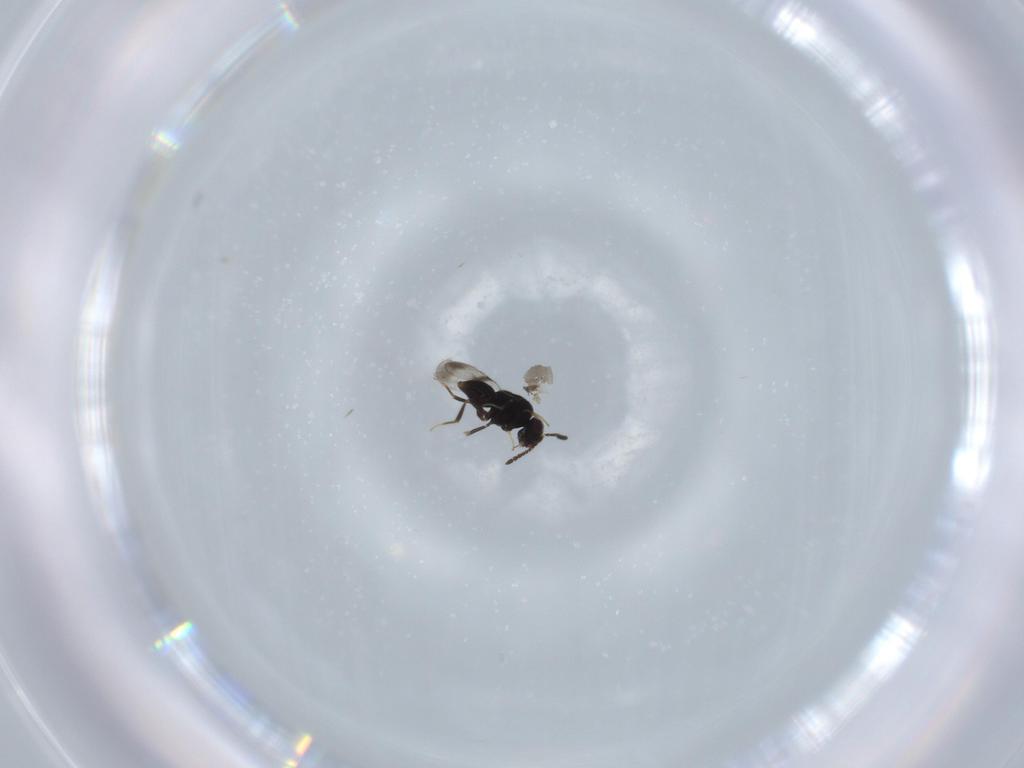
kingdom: Animalia
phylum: Arthropoda
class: Insecta
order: Hymenoptera
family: Ceraphronidae
